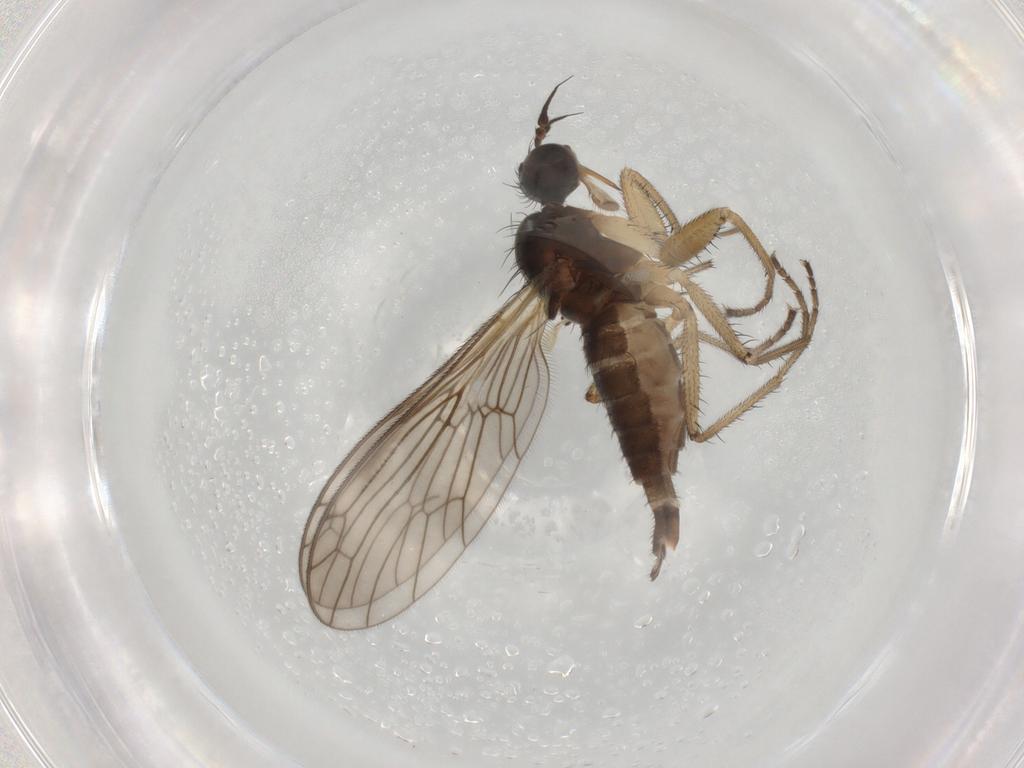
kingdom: Animalia
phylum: Arthropoda
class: Insecta
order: Diptera
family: Empididae
